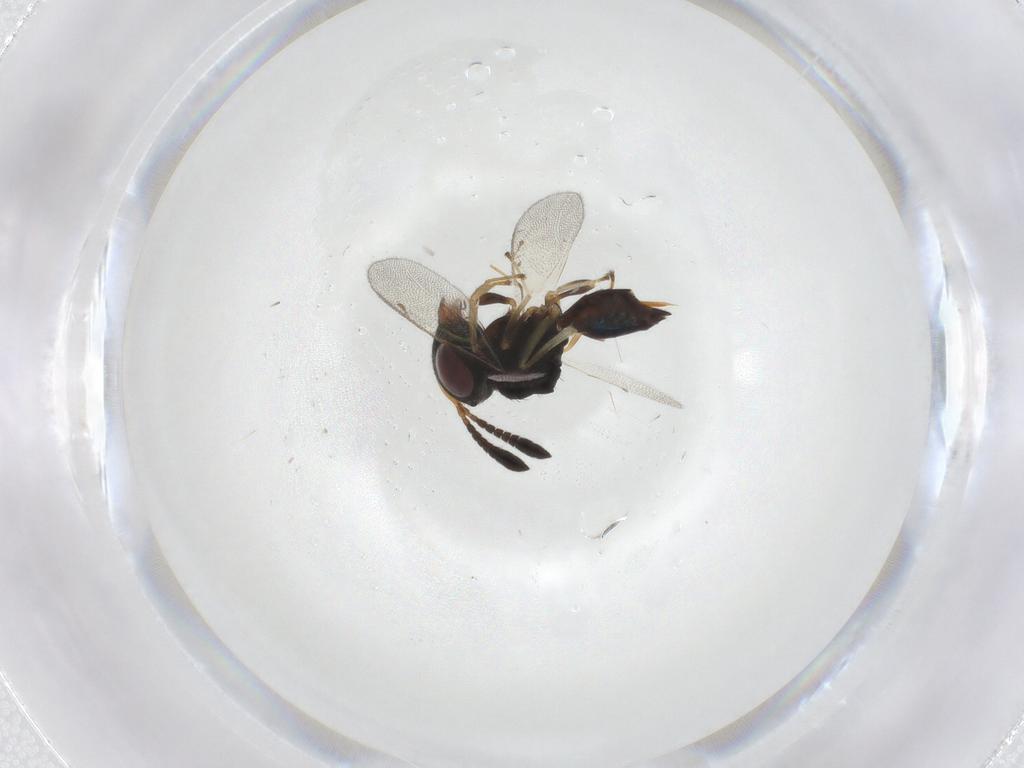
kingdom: Animalia
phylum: Arthropoda
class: Insecta
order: Hymenoptera
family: Pteromalidae
